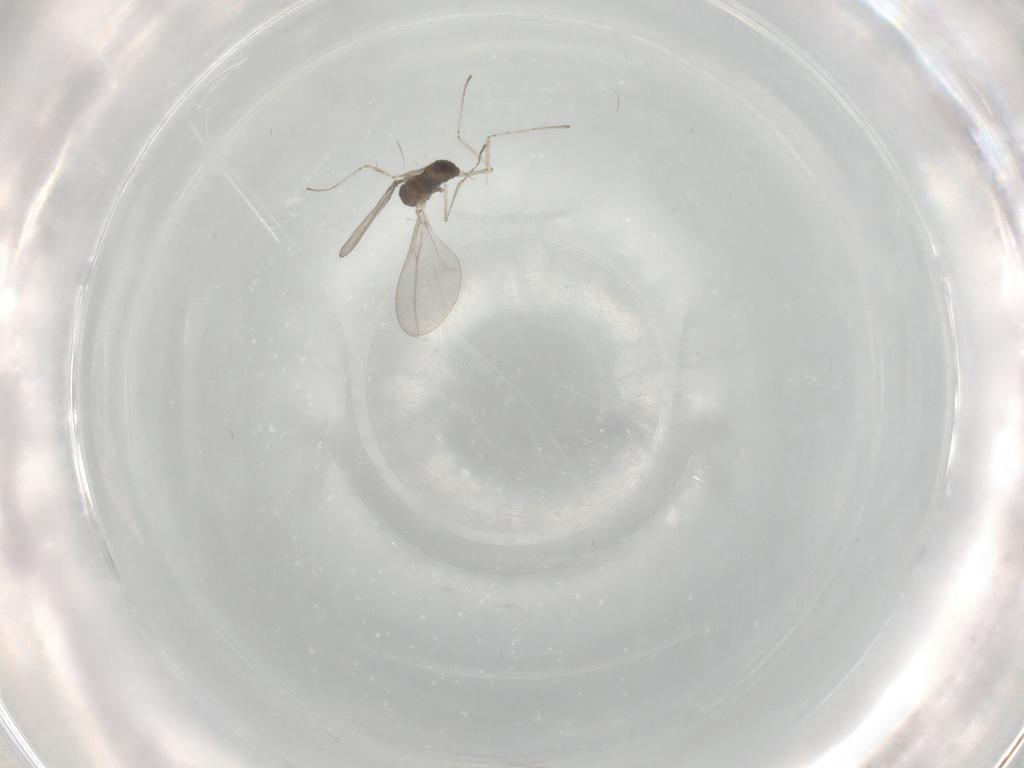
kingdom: Animalia
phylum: Arthropoda
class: Insecta
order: Diptera
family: Cecidomyiidae
